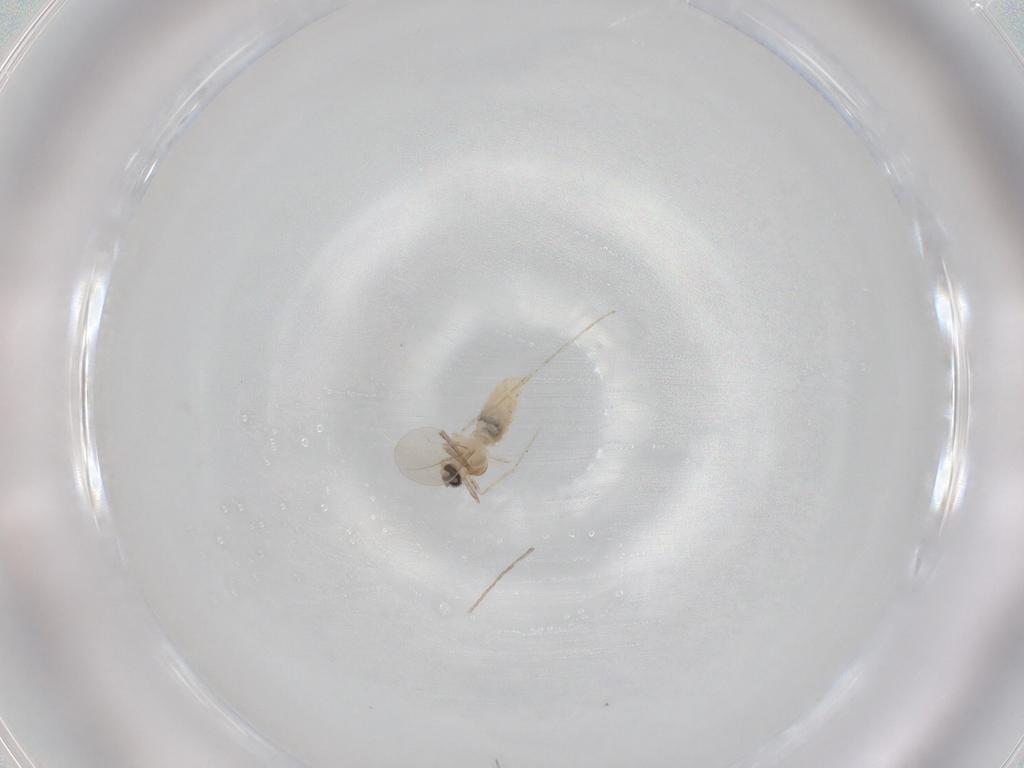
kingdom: Animalia
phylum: Arthropoda
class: Insecta
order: Diptera
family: Cecidomyiidae
